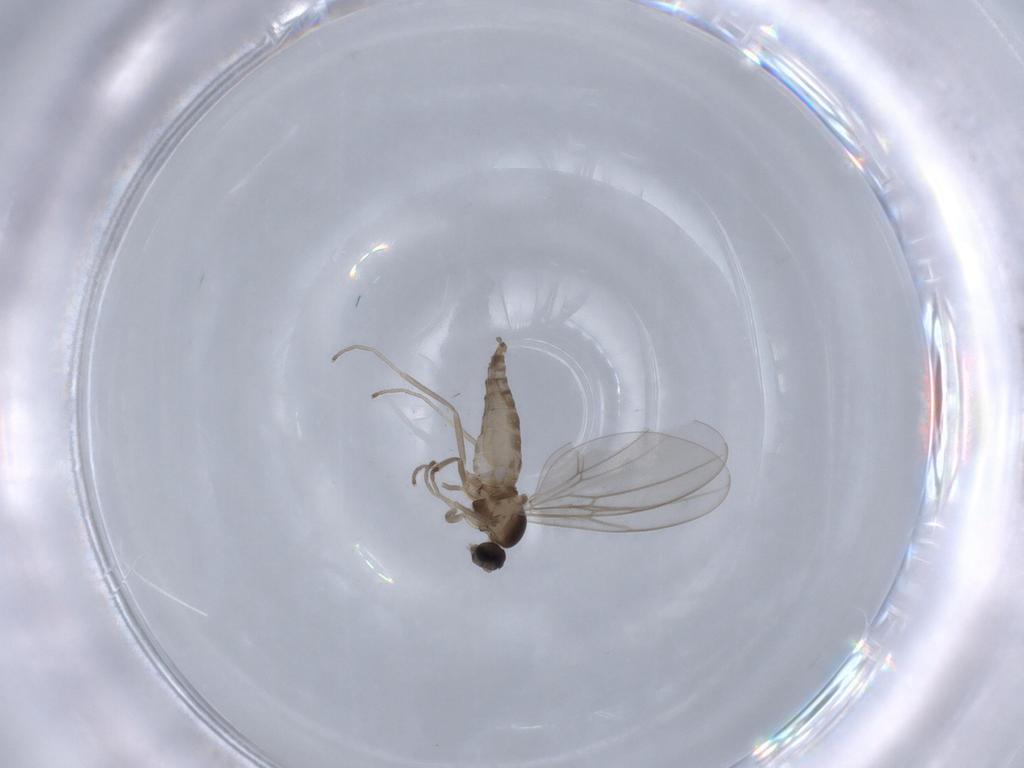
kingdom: Animalia
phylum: Arthropoda
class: Insecta
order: Diptera
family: Cecidomyiidae
